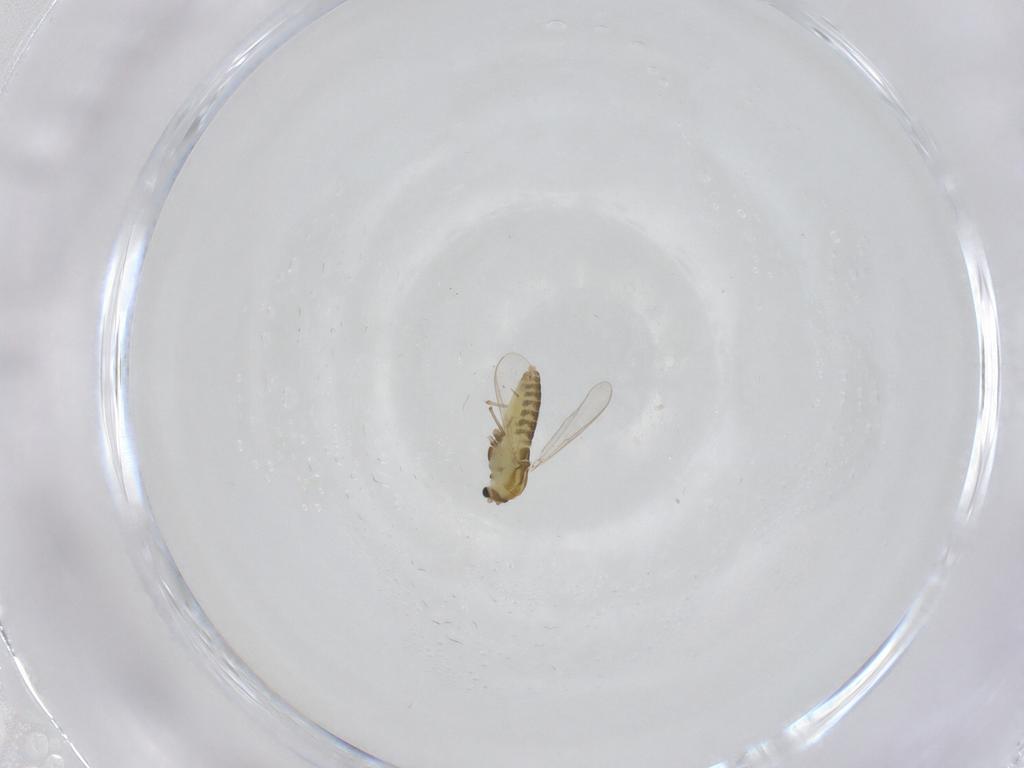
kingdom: Animalia
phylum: Arthropoda
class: Insecta
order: Diptera
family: Chironomidae
